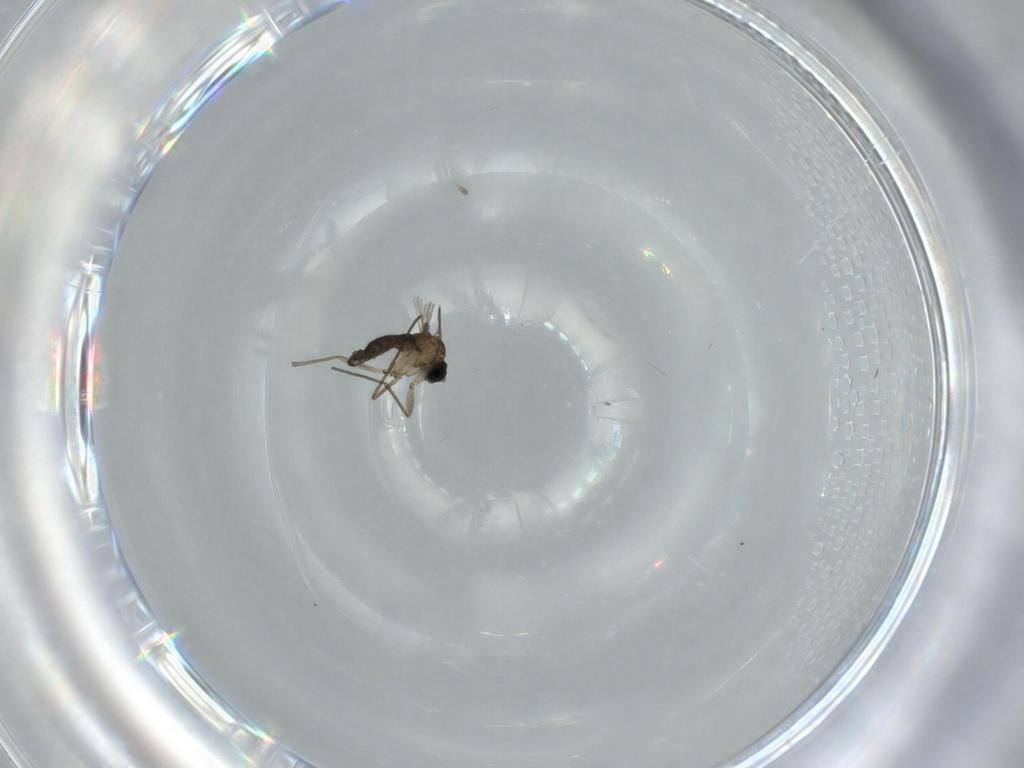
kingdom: Animalia
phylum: Arthropoda
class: Insecta
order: Diptera
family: Sciaridae
